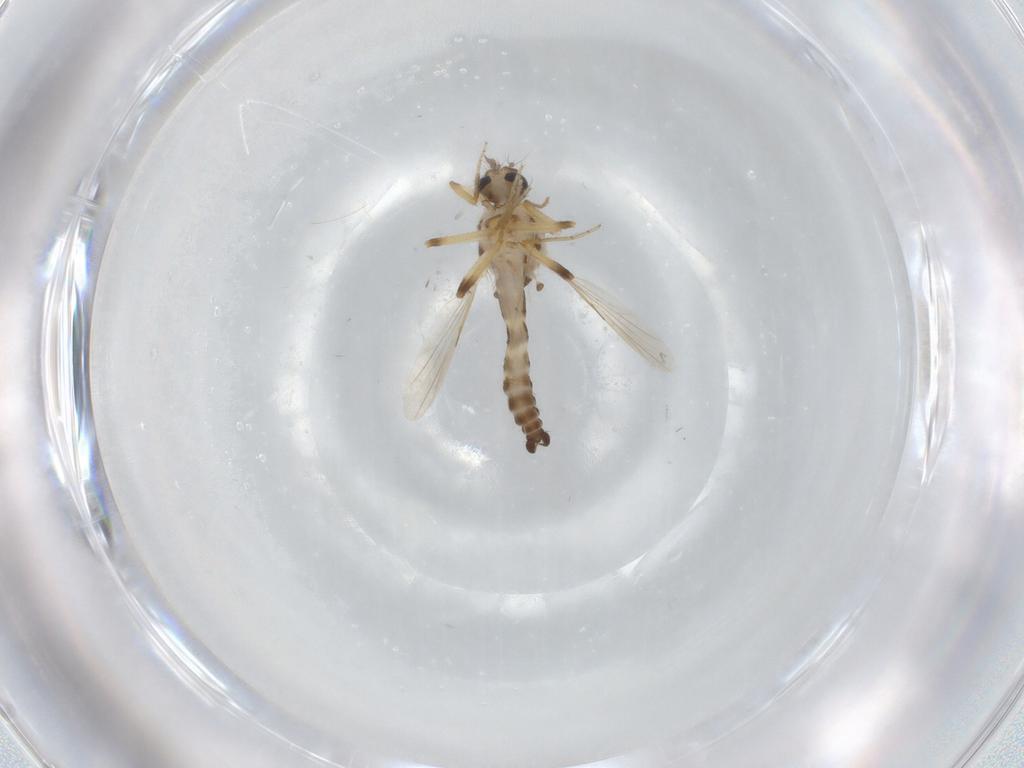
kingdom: Animalia
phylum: Arthropoda
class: Insecta
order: Diptera
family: Ceratopogonidae
